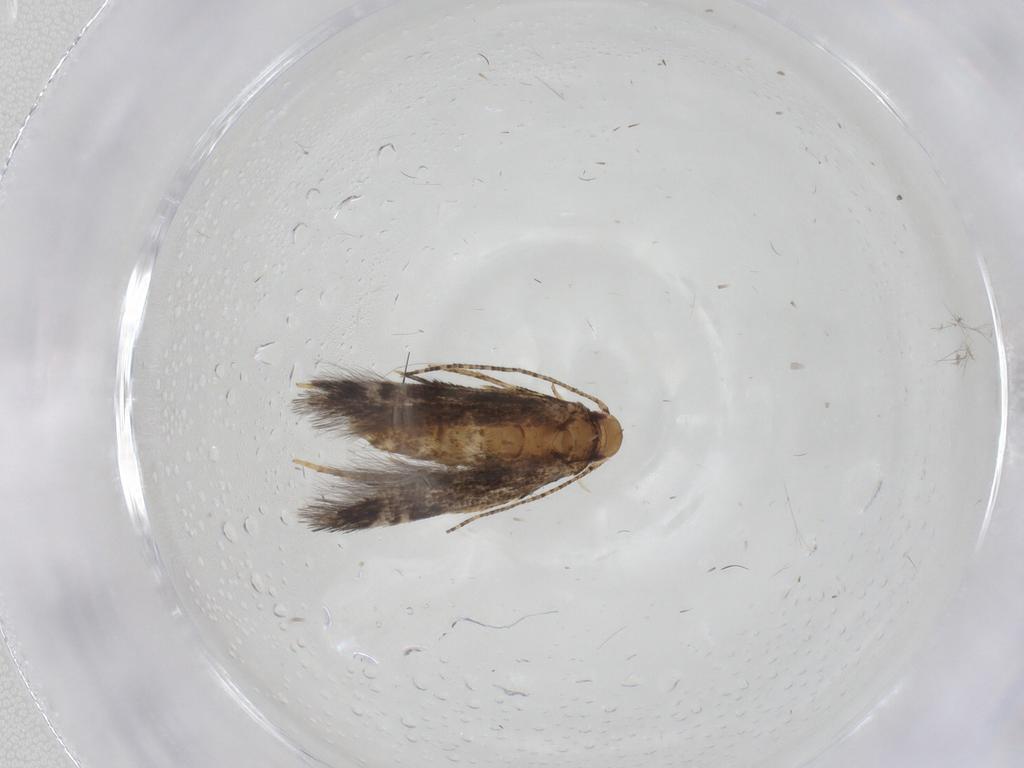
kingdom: Animalia
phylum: Arthropoda
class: Insecta
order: Lepidoptera
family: Momphidae
